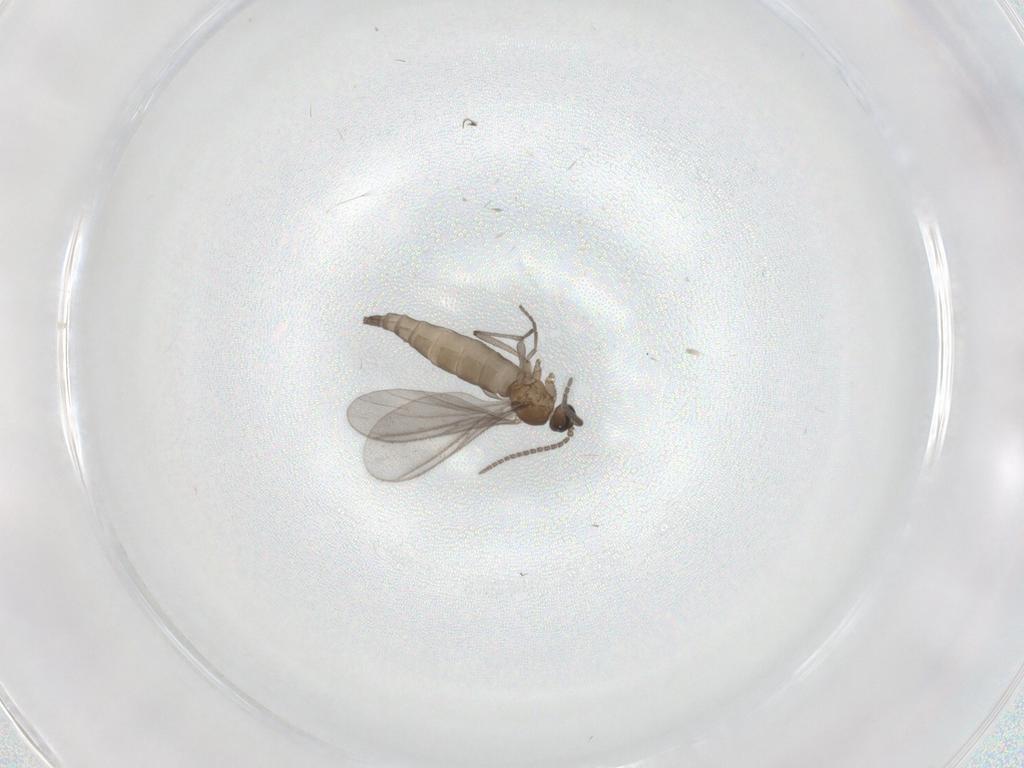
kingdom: Animalia
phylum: Arthropoda
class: Insecta
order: Diptera
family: Sciaridae
